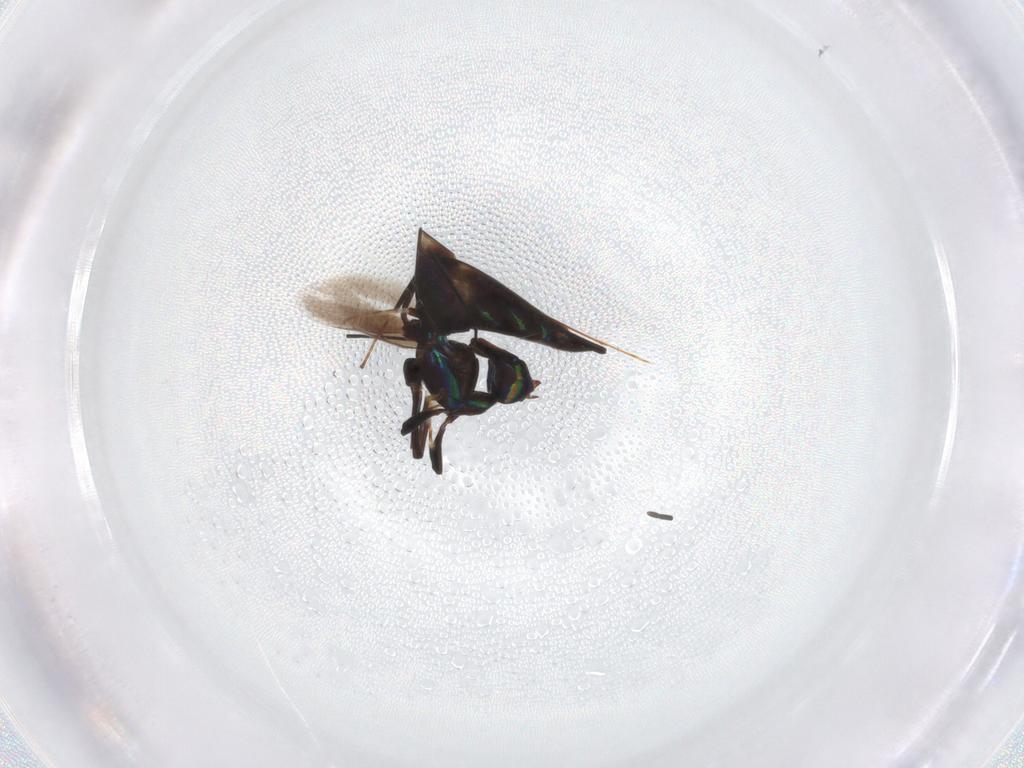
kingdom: Animalia
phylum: Arthropoda
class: Insecta
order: Hymenoptera
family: Pteromalidae
